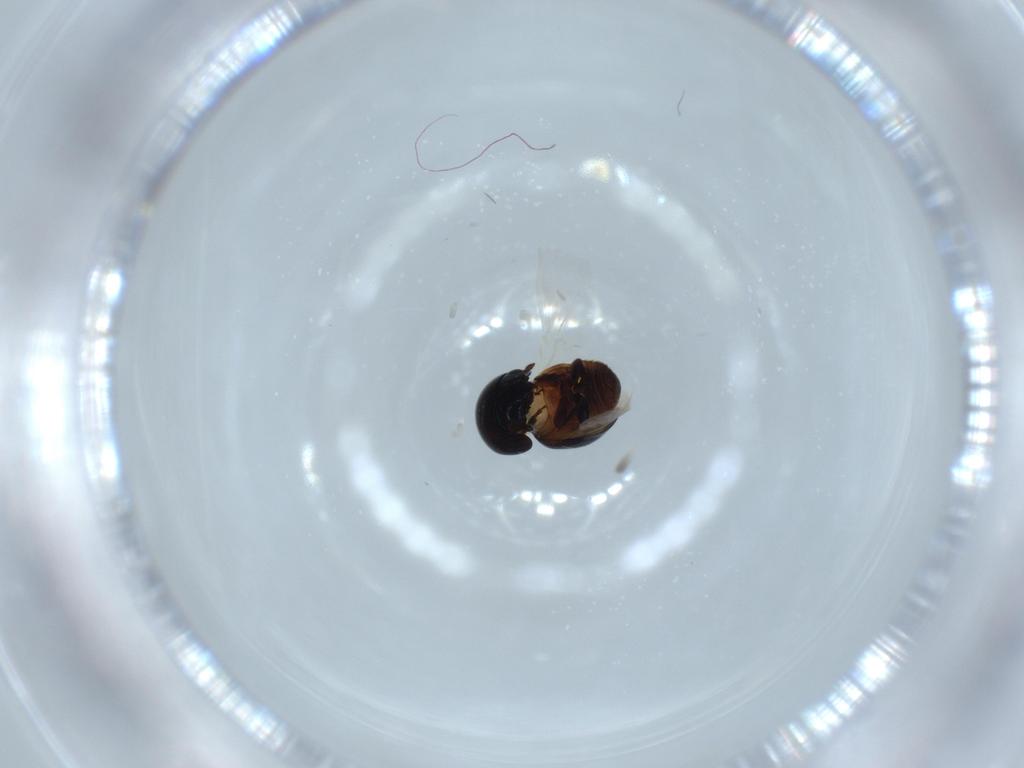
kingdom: Animalia
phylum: Arthropoda
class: Insecta
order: Coleoptera
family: Cybocephalidae
